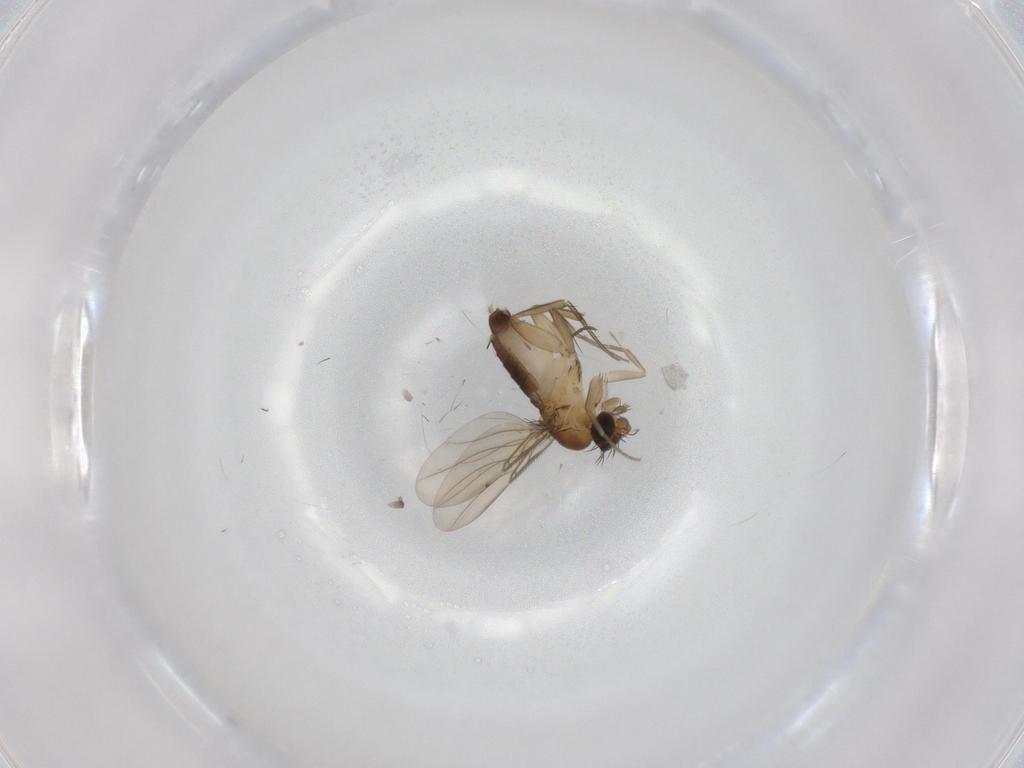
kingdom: Animalia
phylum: Arthropoda
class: Insecta
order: Diptera
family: Phoridae
